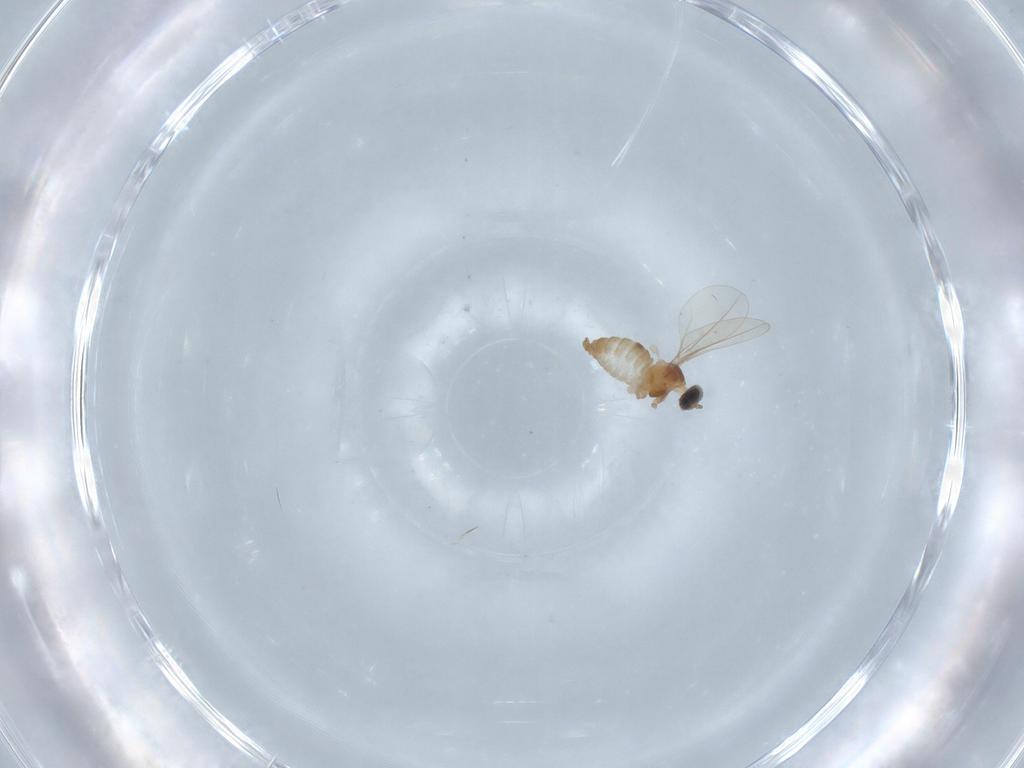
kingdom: Animalia
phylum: Arthropoda
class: Insecta
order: Diptera
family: Cecidomyiidae
